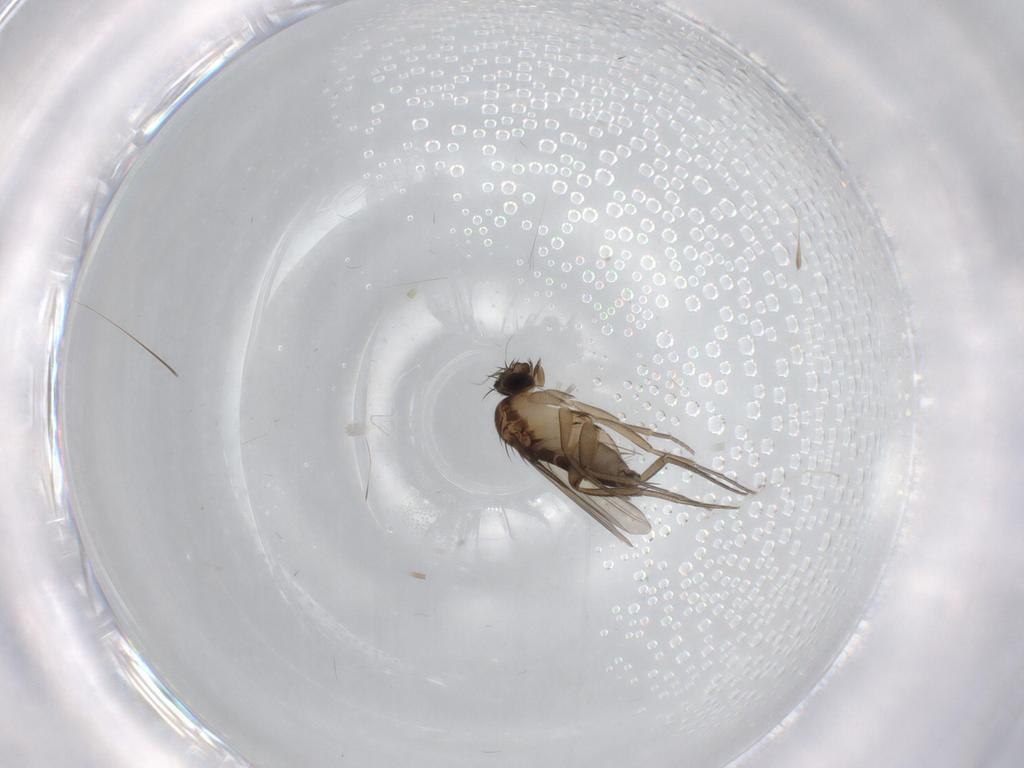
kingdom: Animalia
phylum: Arthropoda
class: Insecta
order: Diptera
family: Phoridae
